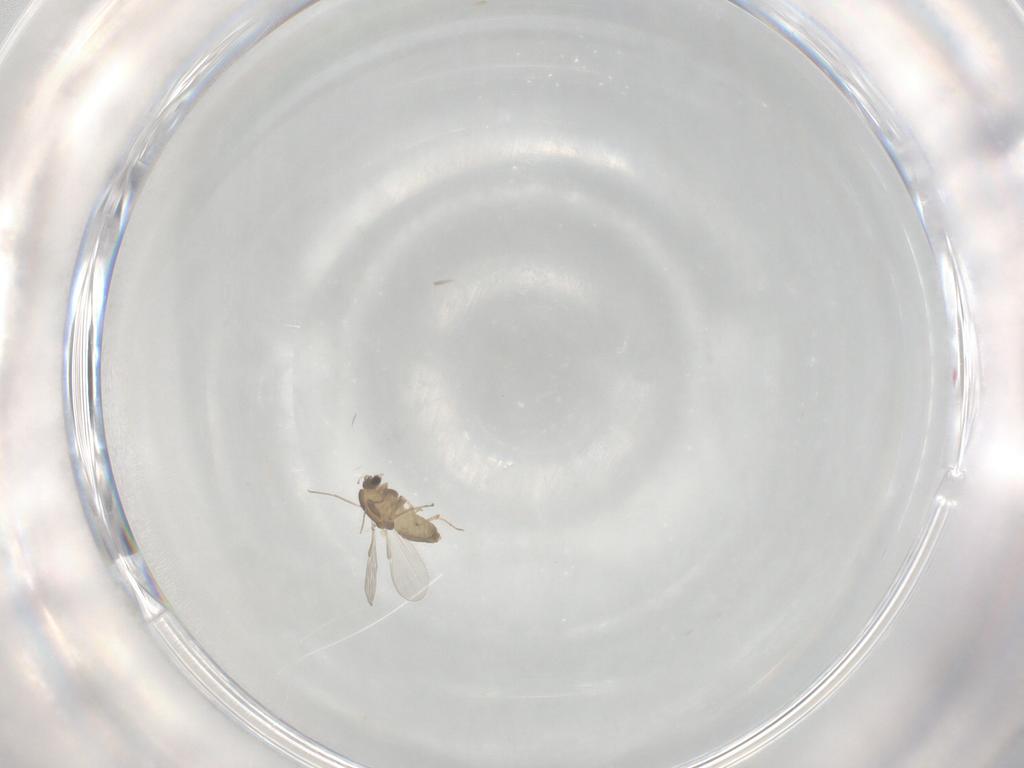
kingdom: Animalia
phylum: Arthropoda
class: Insecta
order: Diptera
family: Chironomidae
